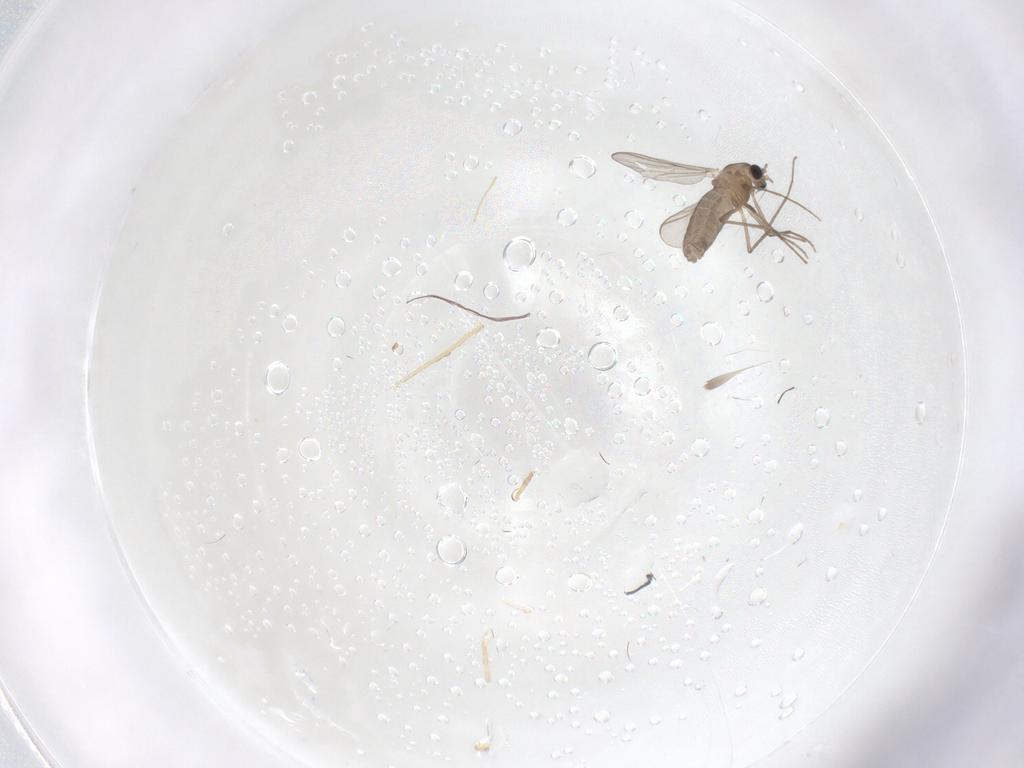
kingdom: Animalia
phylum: Arthropoda
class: Insecta
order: Diptera
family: Chironomidae
